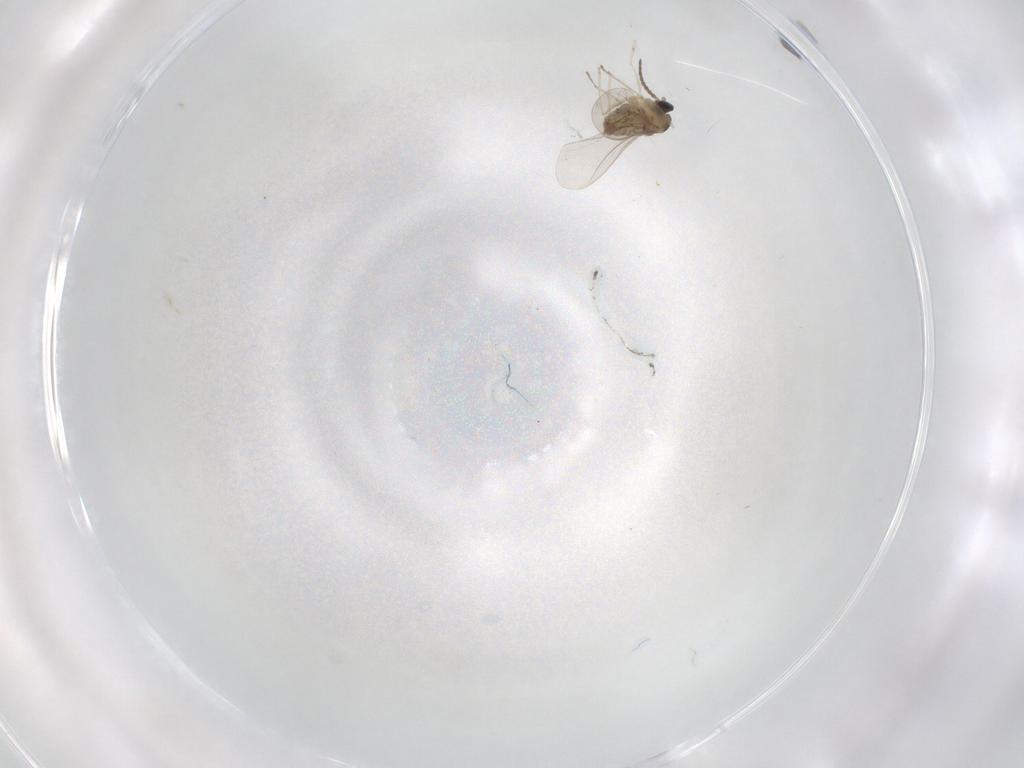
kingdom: Animalia
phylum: Arthropoda
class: Insecta
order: Diptera
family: Cecidomyiidae
